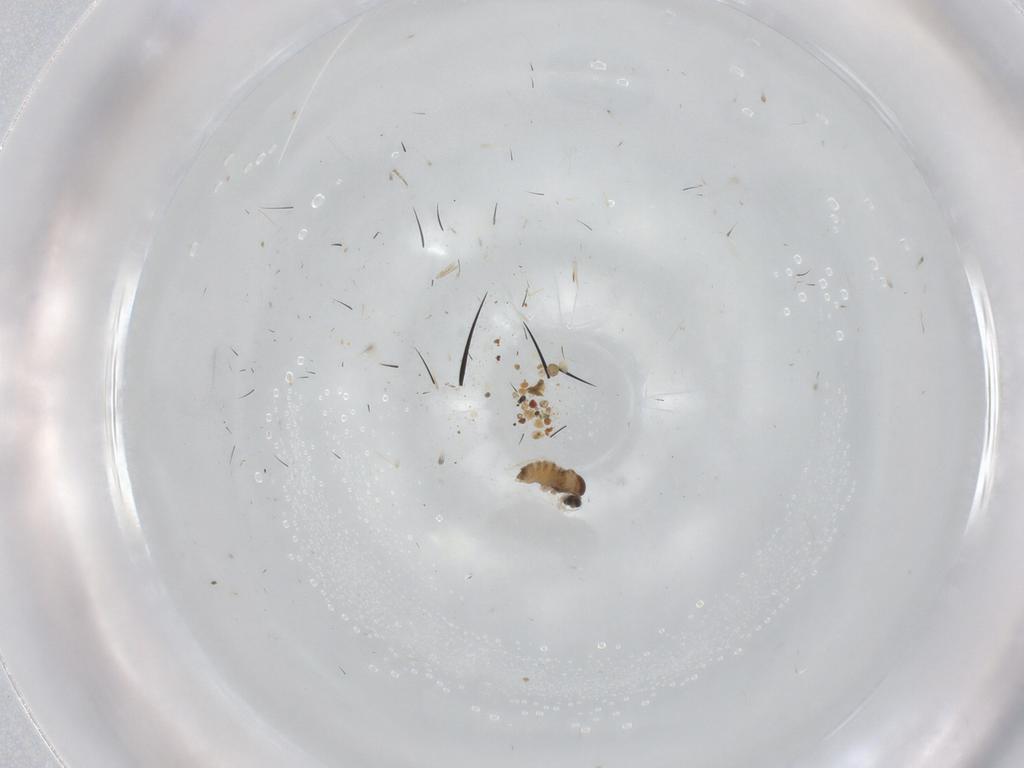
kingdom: Animalia
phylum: Arthropoda
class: Insecta
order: Diptera
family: Cecidomyiidae
